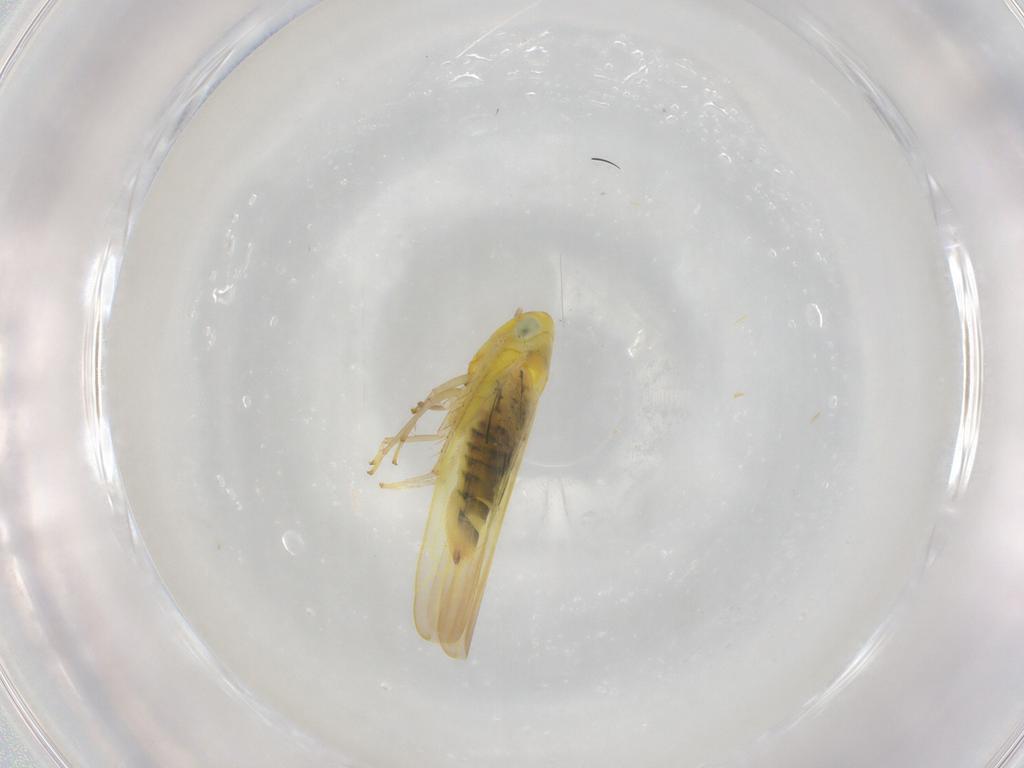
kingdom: Animalia
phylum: Arthropoda
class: Insecta
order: Hemiptera
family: Cicadellidae
